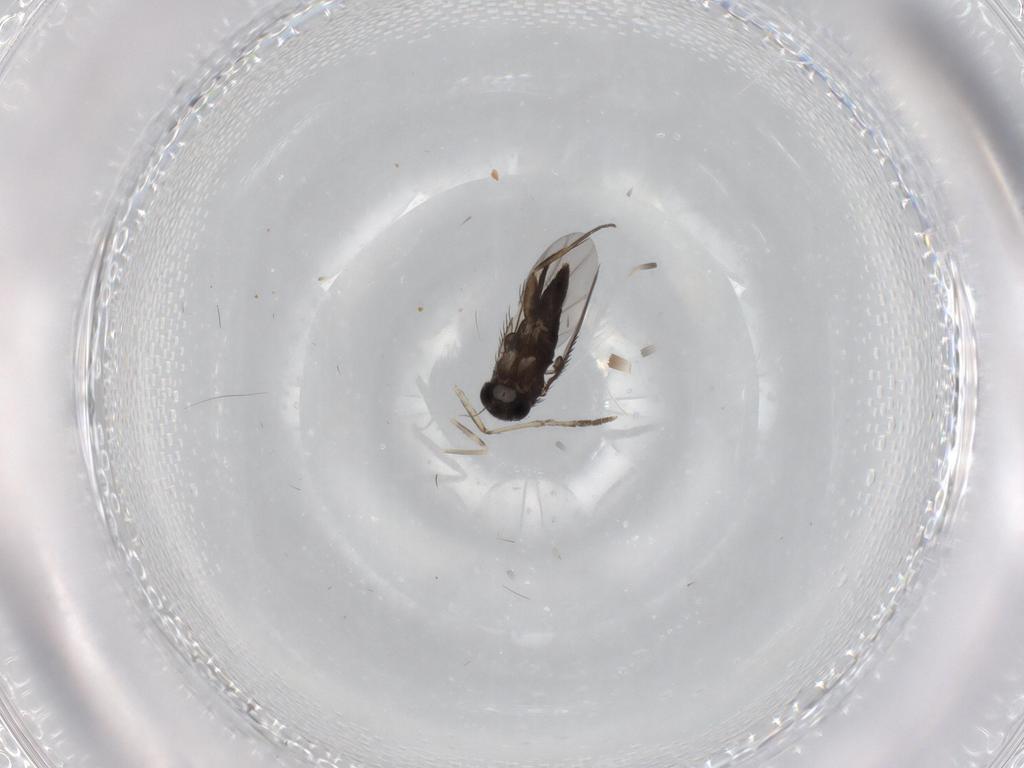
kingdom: Animalia
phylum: Arthropoda
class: Insecta
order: Diptera
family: Phoridae
